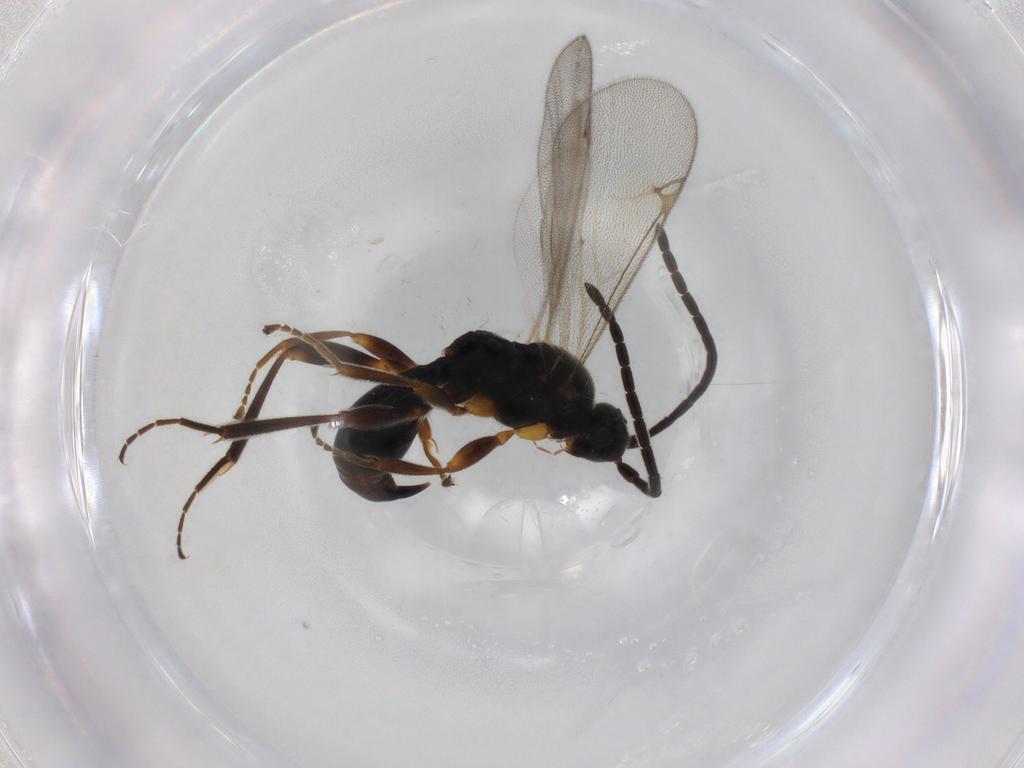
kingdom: Animalia
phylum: Arthropoda
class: Insecta
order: Hymenoptera
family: Proctotrupidae
